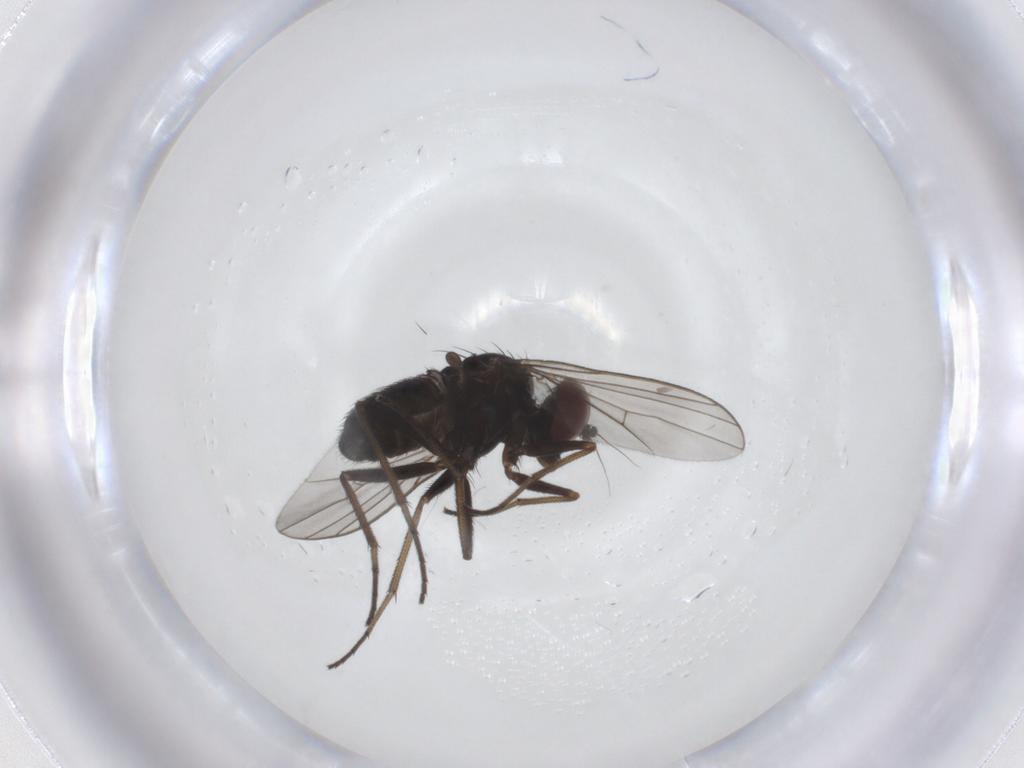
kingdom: Animalia
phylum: Arthropoda
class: Insecta
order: Diptera
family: Dolichopodidae
